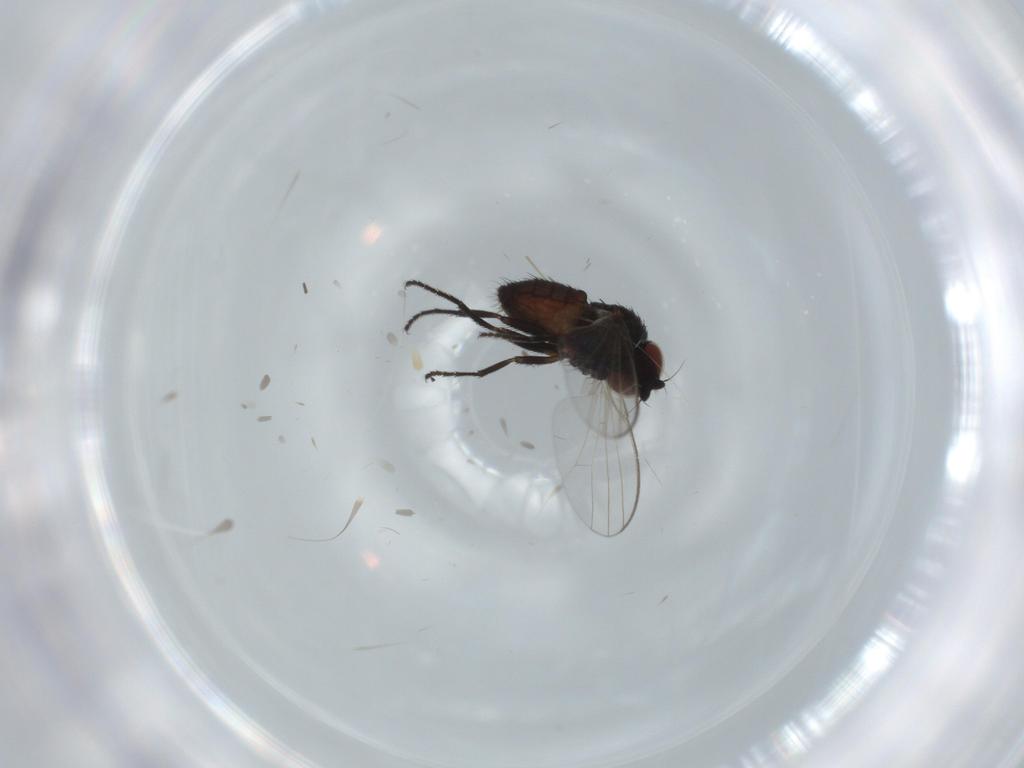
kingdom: Animalia
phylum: Arthropoda
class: Insecta
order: Diptera
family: Milichiidae
